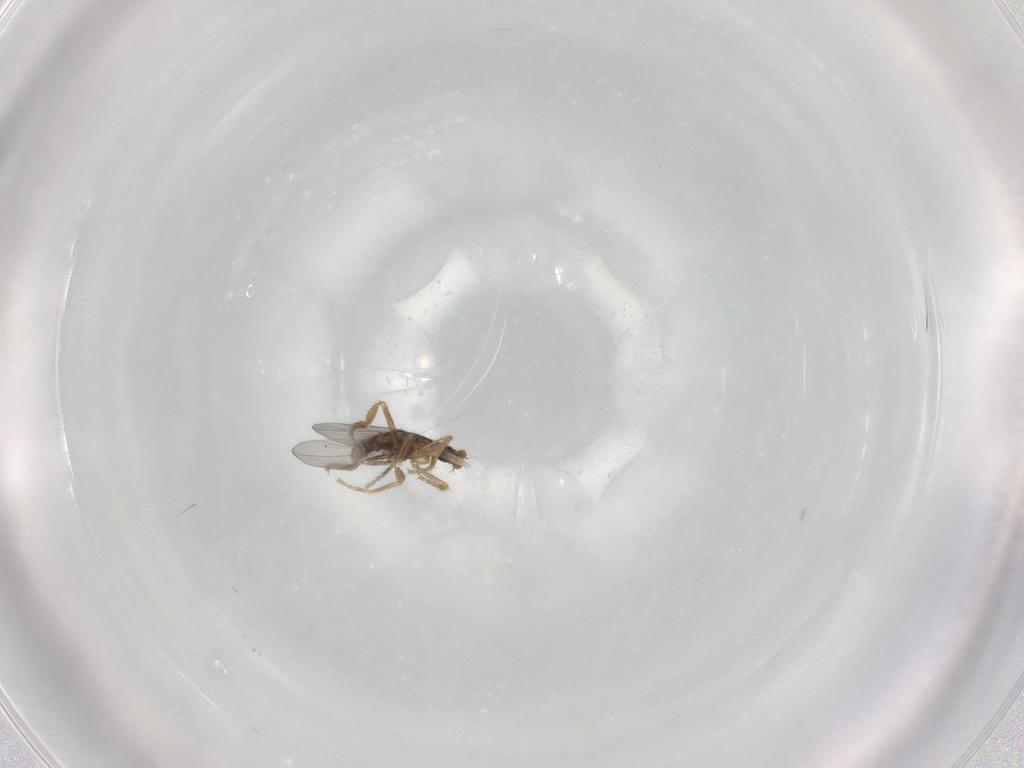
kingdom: Animalia
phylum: Arthropoda
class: Insecta
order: Diptera
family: Phoridae
